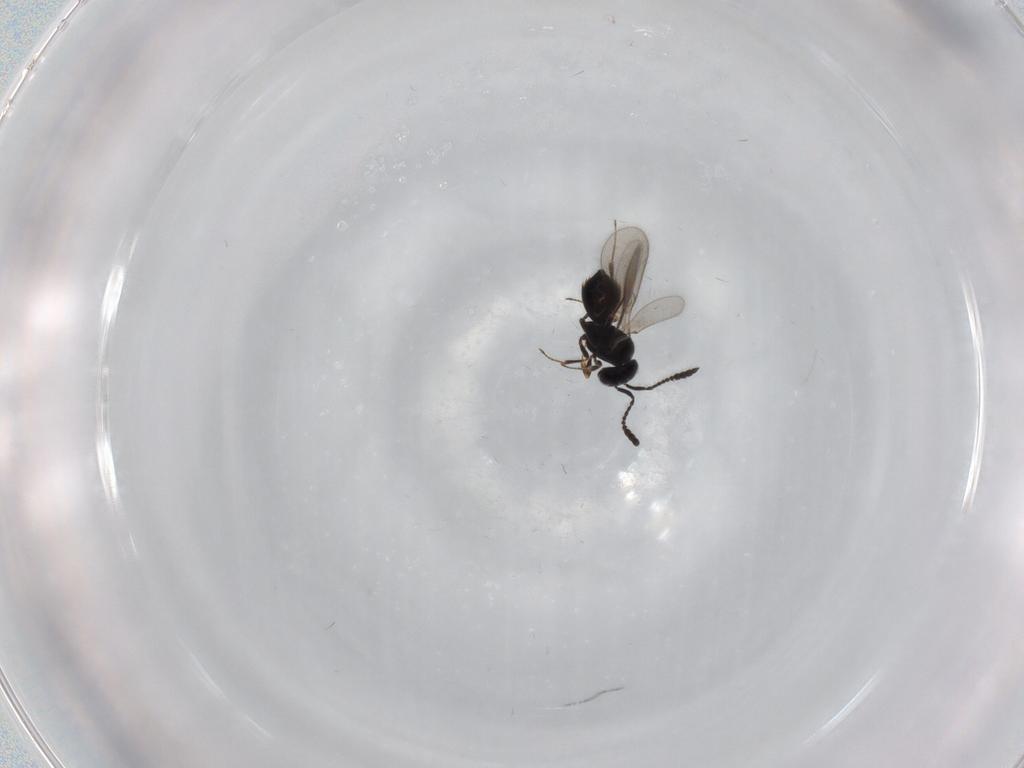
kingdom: Animalia
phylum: Arthropoda
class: Insecta
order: Hymenoptera
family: Scelionidae
